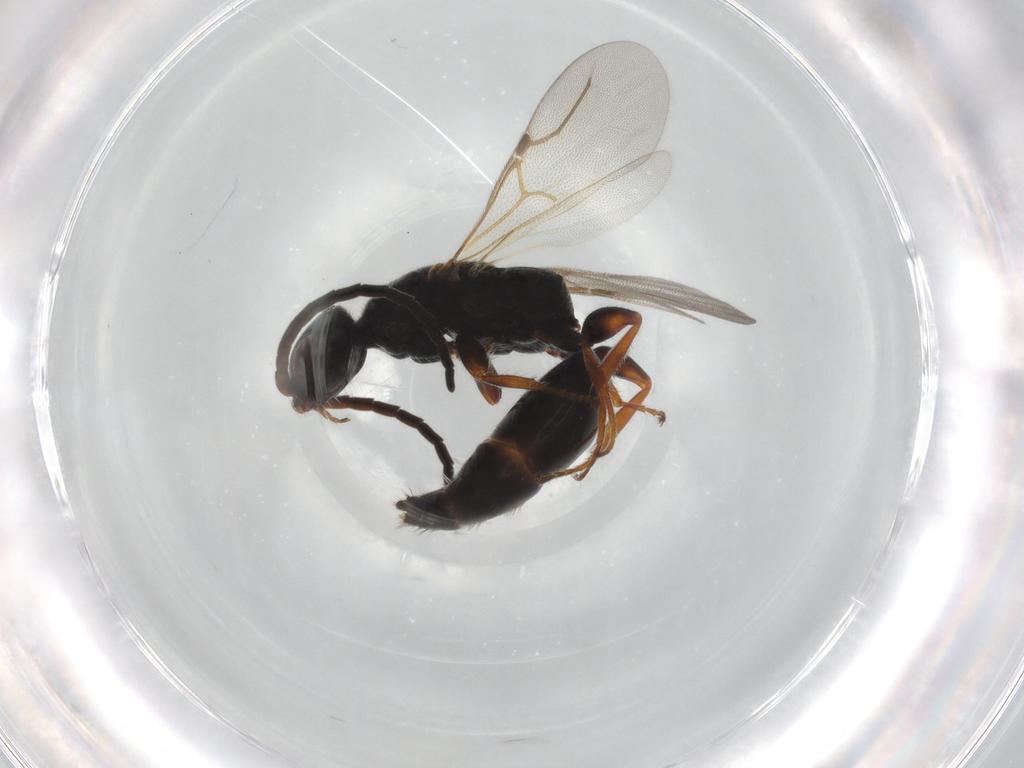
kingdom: Animalia
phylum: Arthropoda
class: Insecta
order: Hymenoptera
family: Bethylidae
